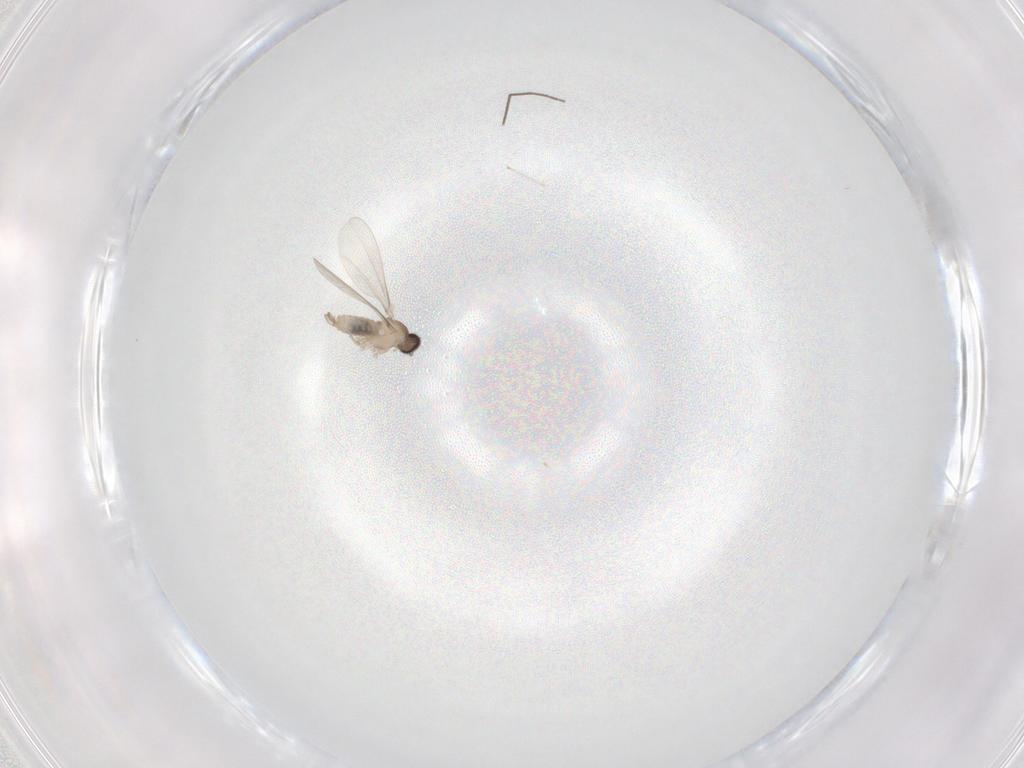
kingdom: Animalia
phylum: Arthropoda
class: Insecta
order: Diptera
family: Chironomidae
